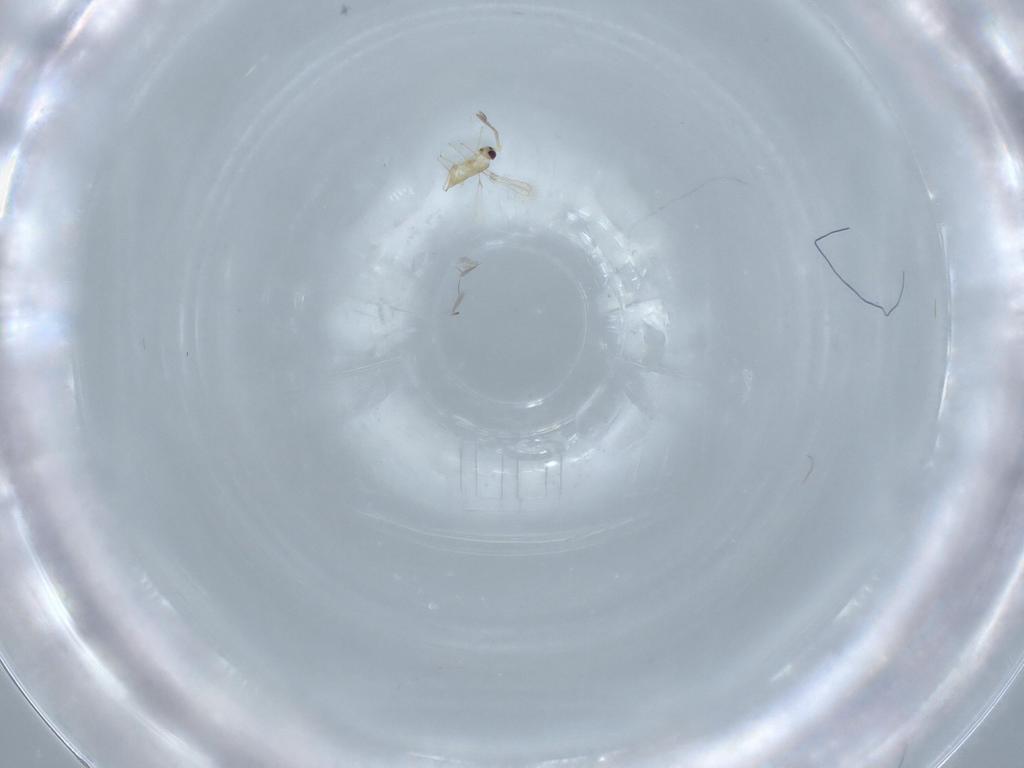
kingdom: Animalia
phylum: Arthropoda
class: Insecta
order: Hymenoptera
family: Mymaridae
